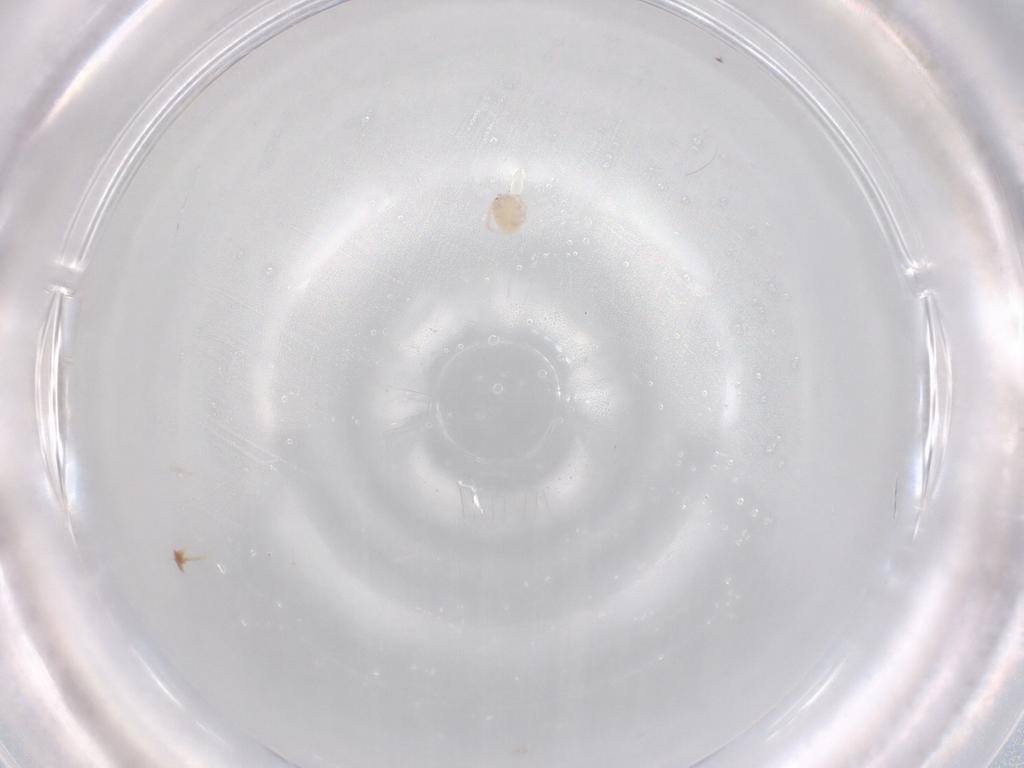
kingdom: Animalia
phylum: Arthropoda
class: Arachnida
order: Trombidiformes
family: Lebertiidae
